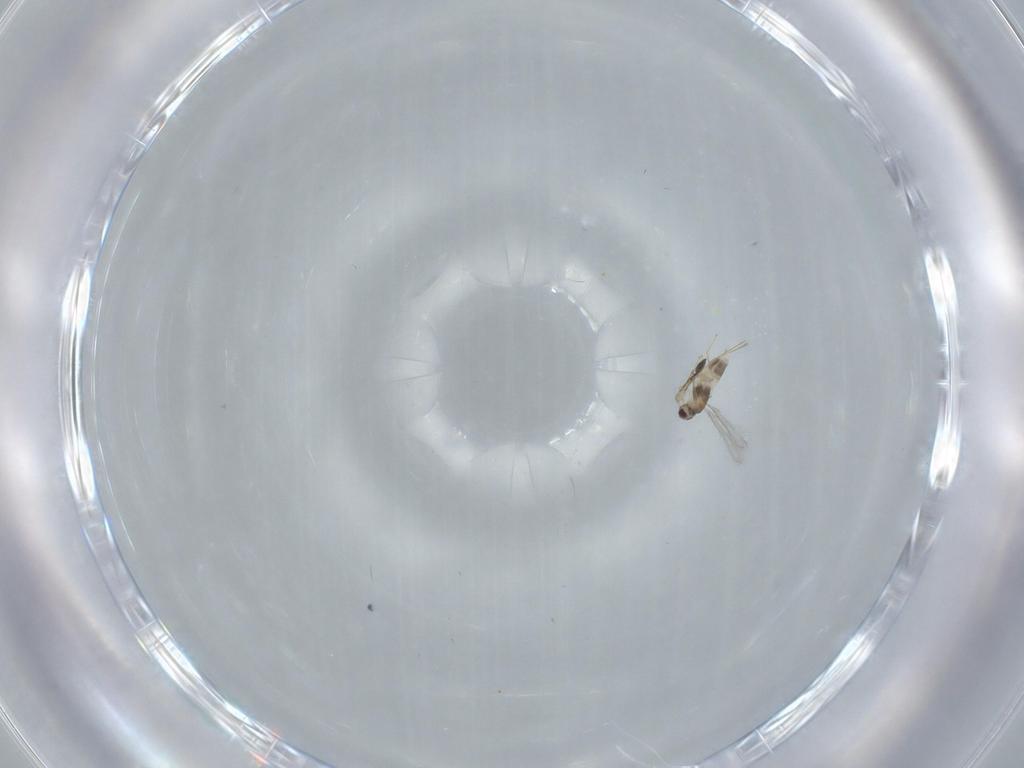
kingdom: Animalia
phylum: Arthropoda
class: Insecta
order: Hymenoptera
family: Mymaridae
